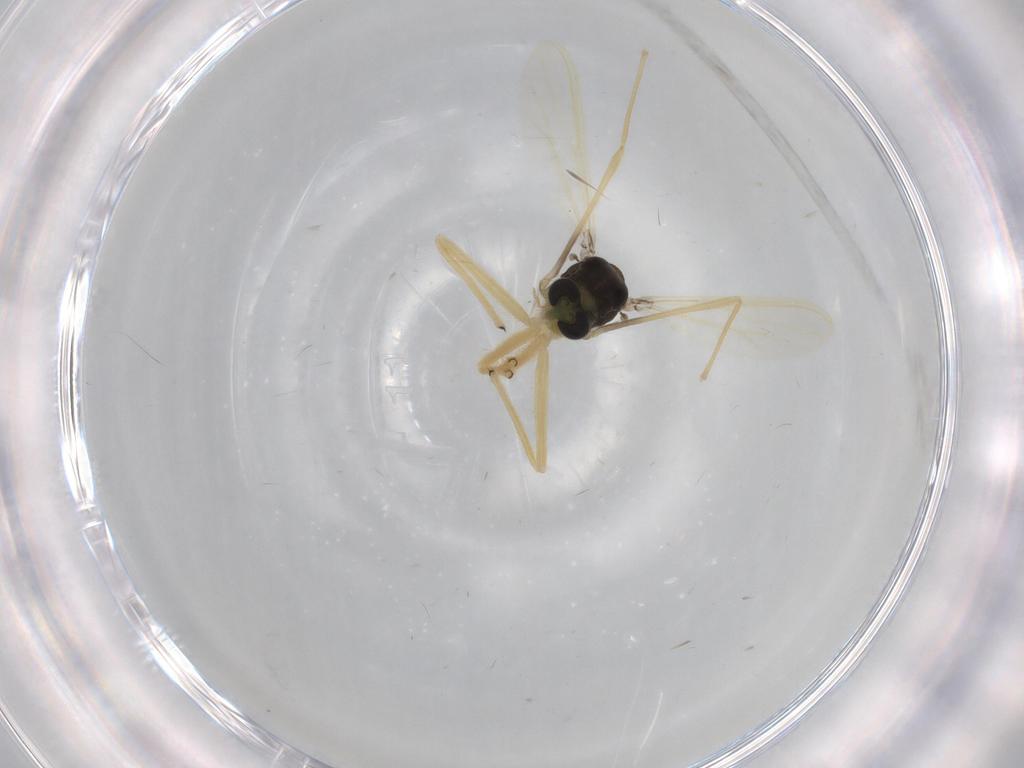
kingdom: Animalia
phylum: Arthropoda
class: Insecta
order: Diptera
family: Chironomidae
